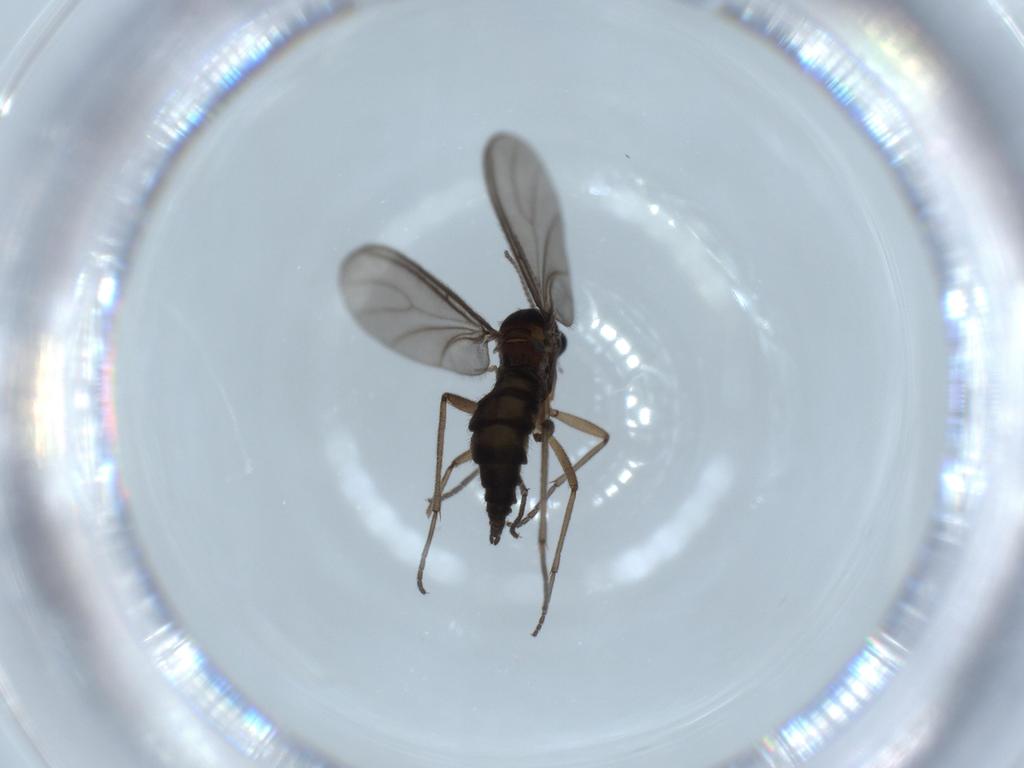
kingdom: Animalia
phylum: Arthropoda
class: Insecta
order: Diptera
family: Sciaridae
